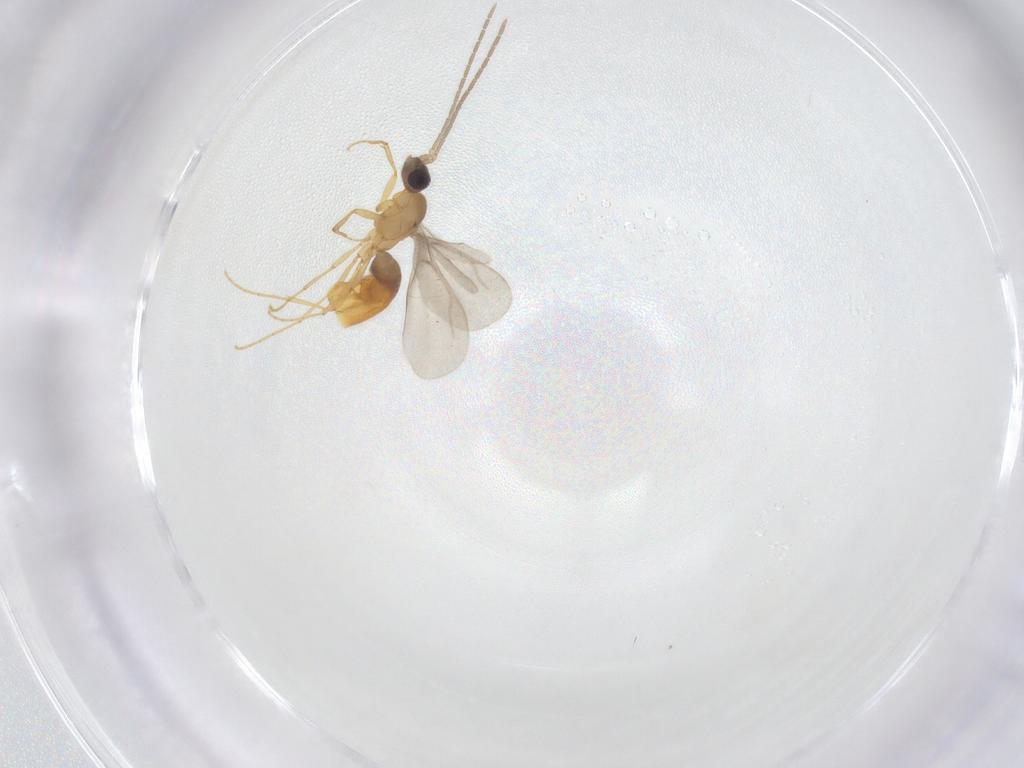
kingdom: Animalia
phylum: Arthropoda
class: Insecta
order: Hymenoptera
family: Formicidae
